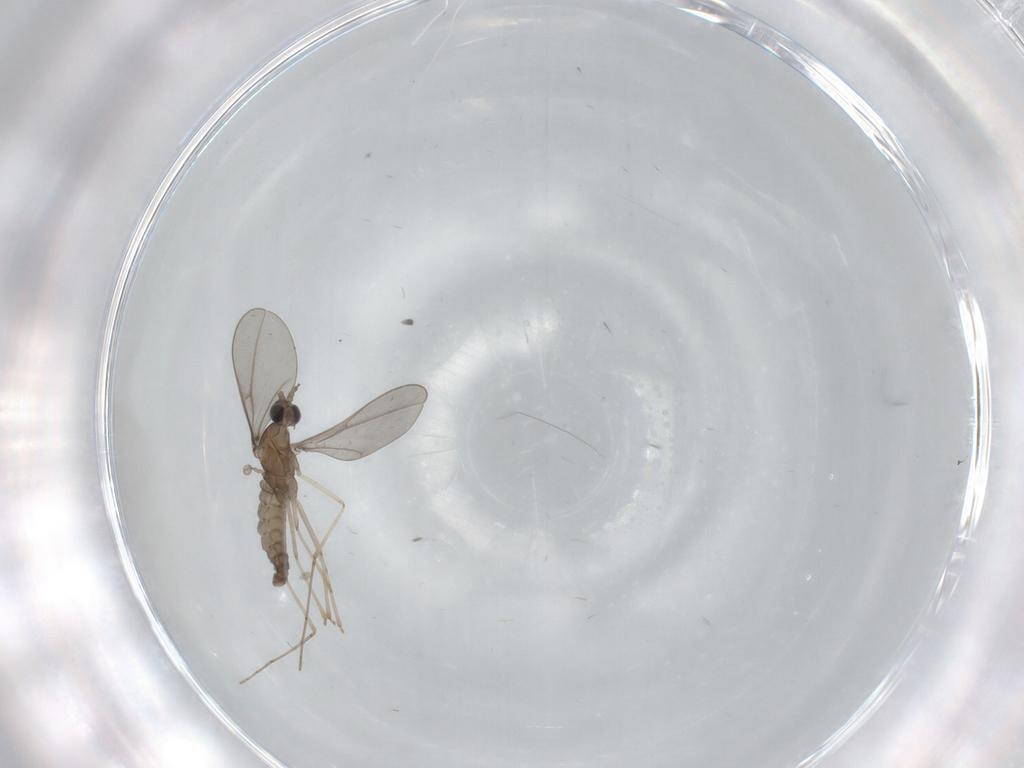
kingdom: Animalia
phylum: Arthropoda
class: Insecta
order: Diptera
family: Cecidomyiidae
